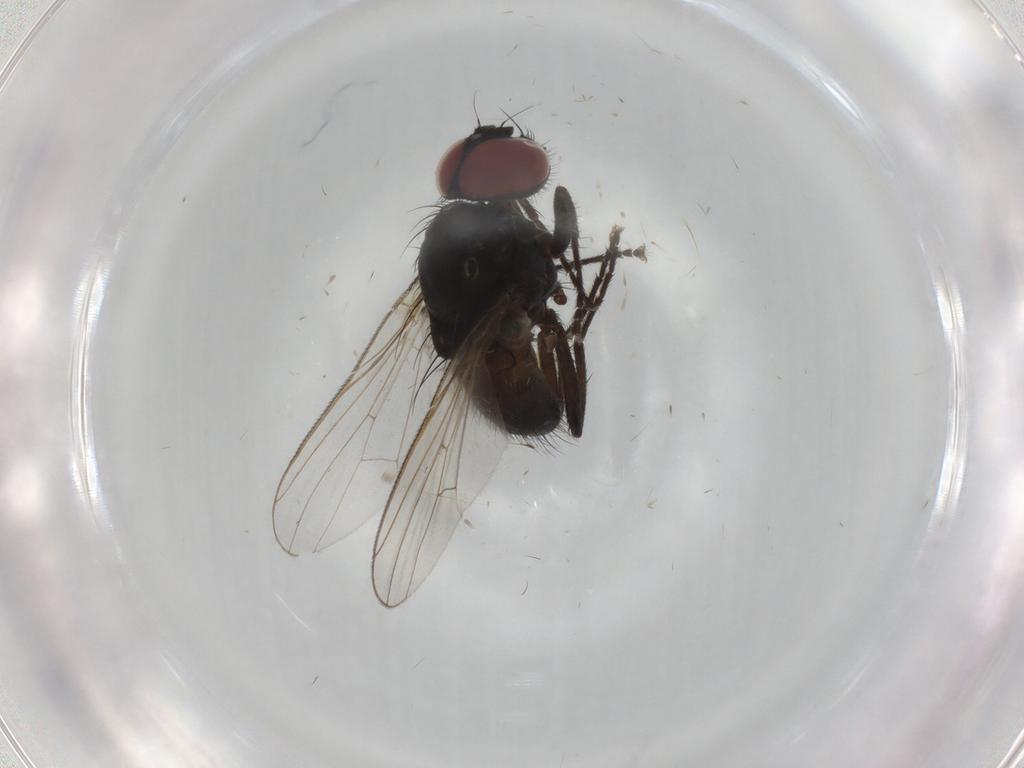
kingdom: Animalia
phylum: Arthropoda
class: Insecta
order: Diptera
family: Muscidae
